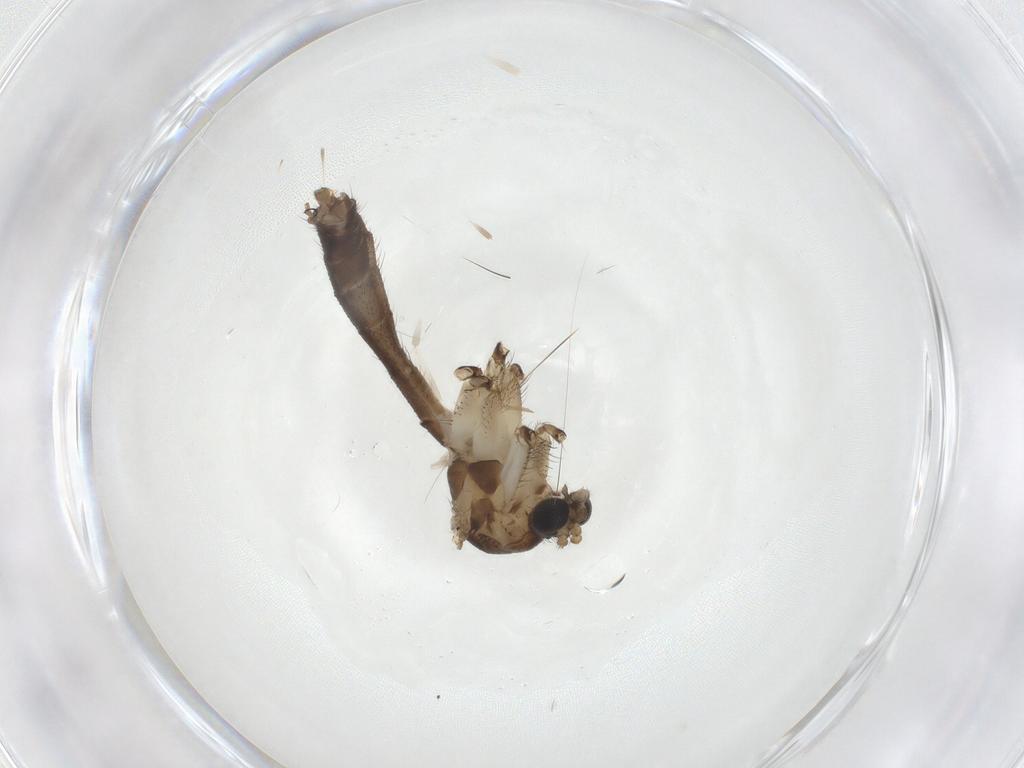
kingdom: Animalia
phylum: Arthropoda
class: Insecta
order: Diptera
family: Mycetophilidae
